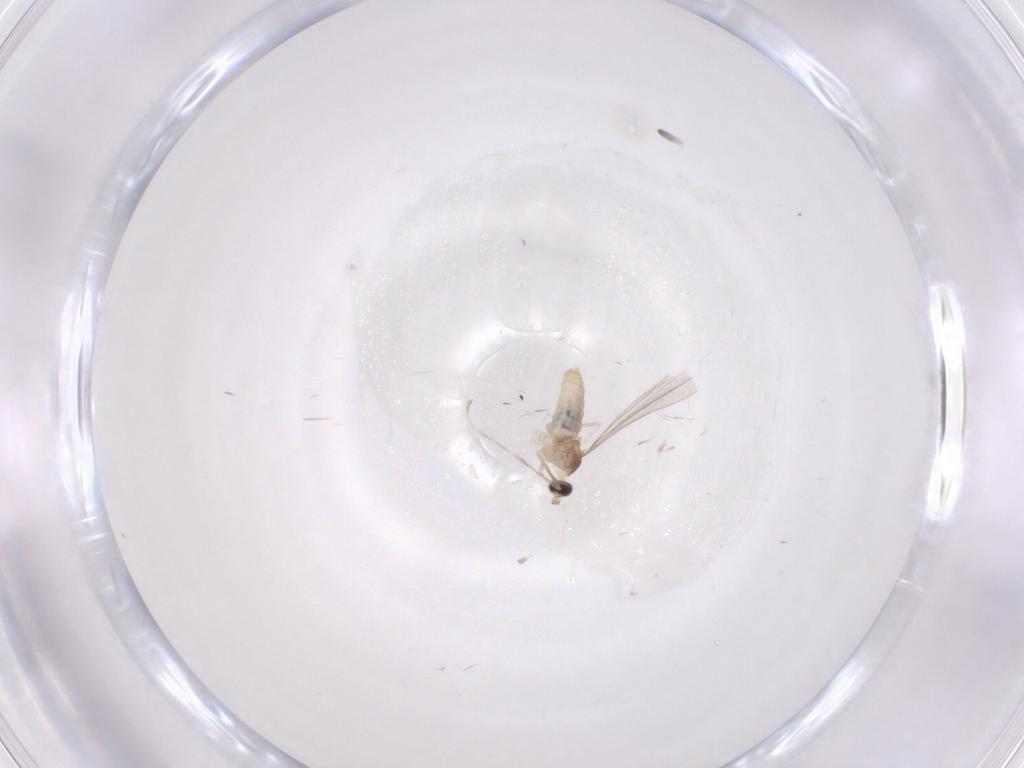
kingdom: Animalia
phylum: Arthropoda
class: Insecta
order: Diptera
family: Cecidomyiidae
